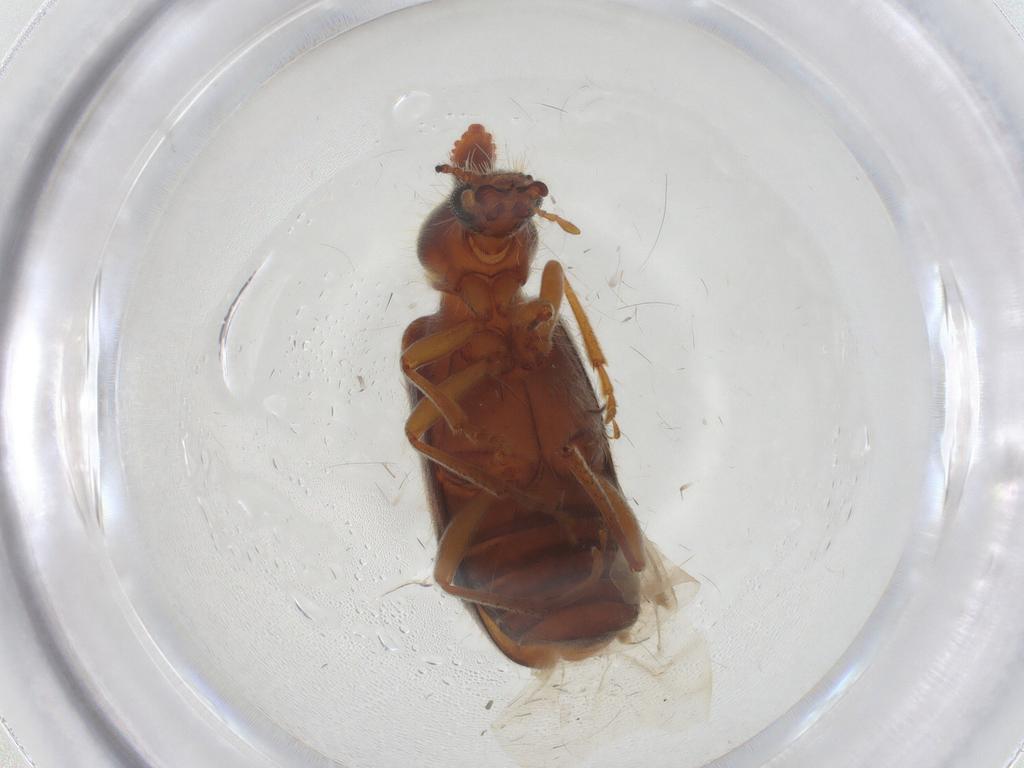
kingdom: Animalia
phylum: Arthropoda
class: Insecta
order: Coleoptera
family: Anthicidae
